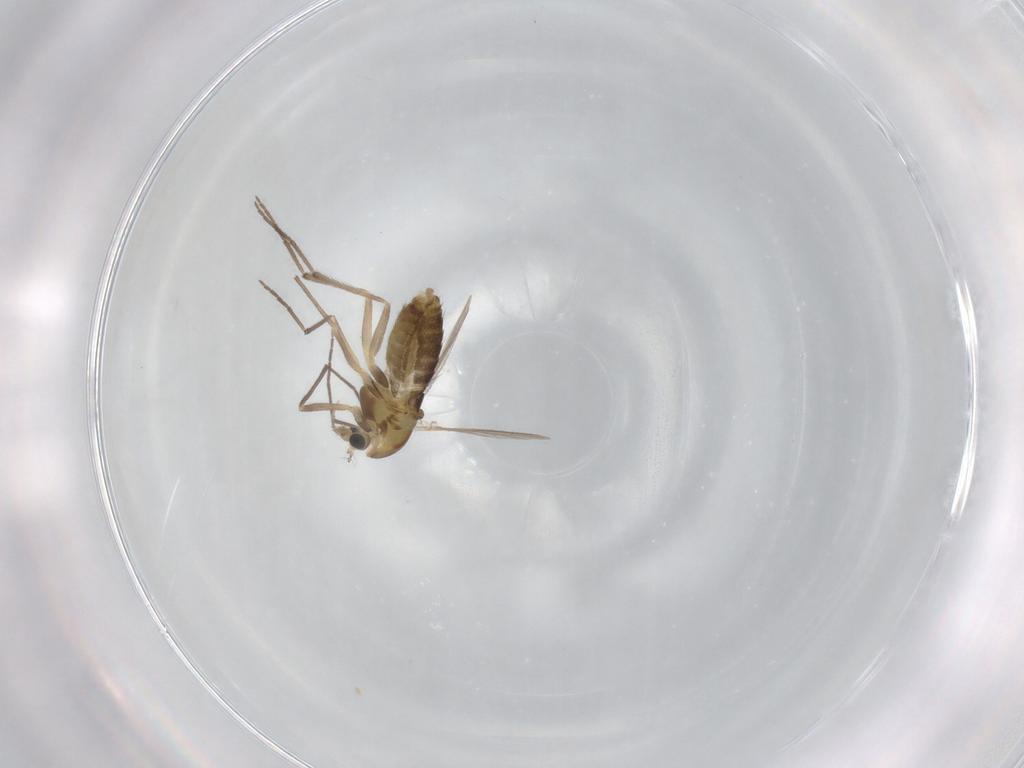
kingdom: Animalia
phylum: Arthropoda
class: Insecta
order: Diptera
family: Chironomidae
